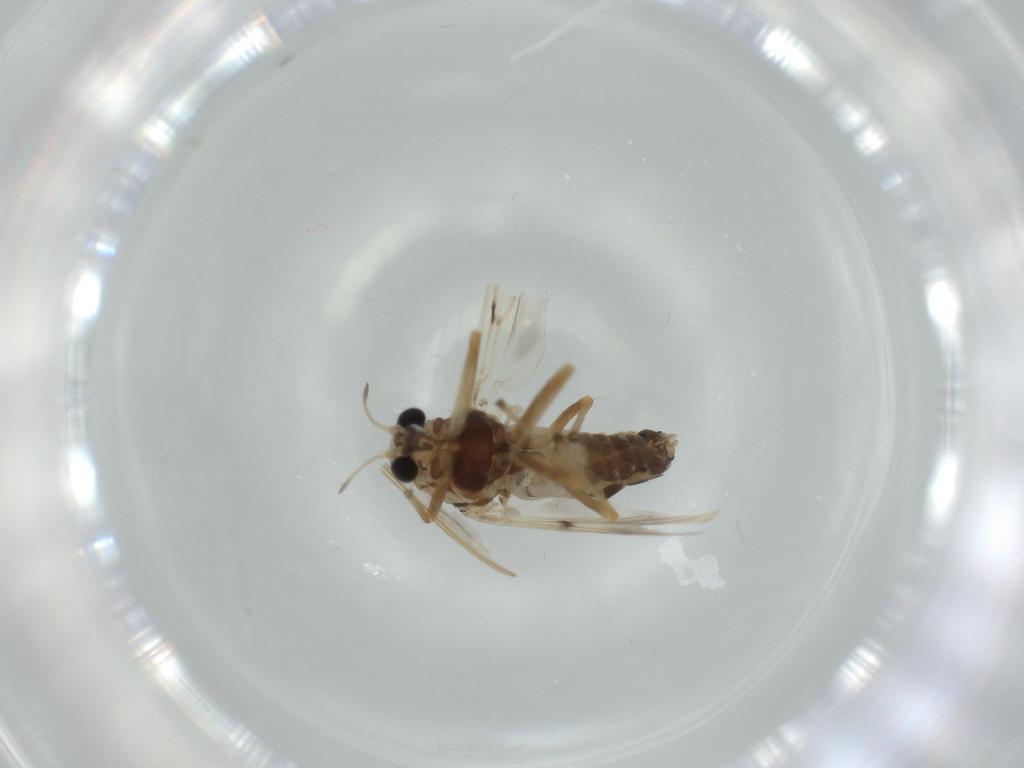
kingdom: Animalia
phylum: Arthropoda
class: Insecta
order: Diptera
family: Chironomidae
